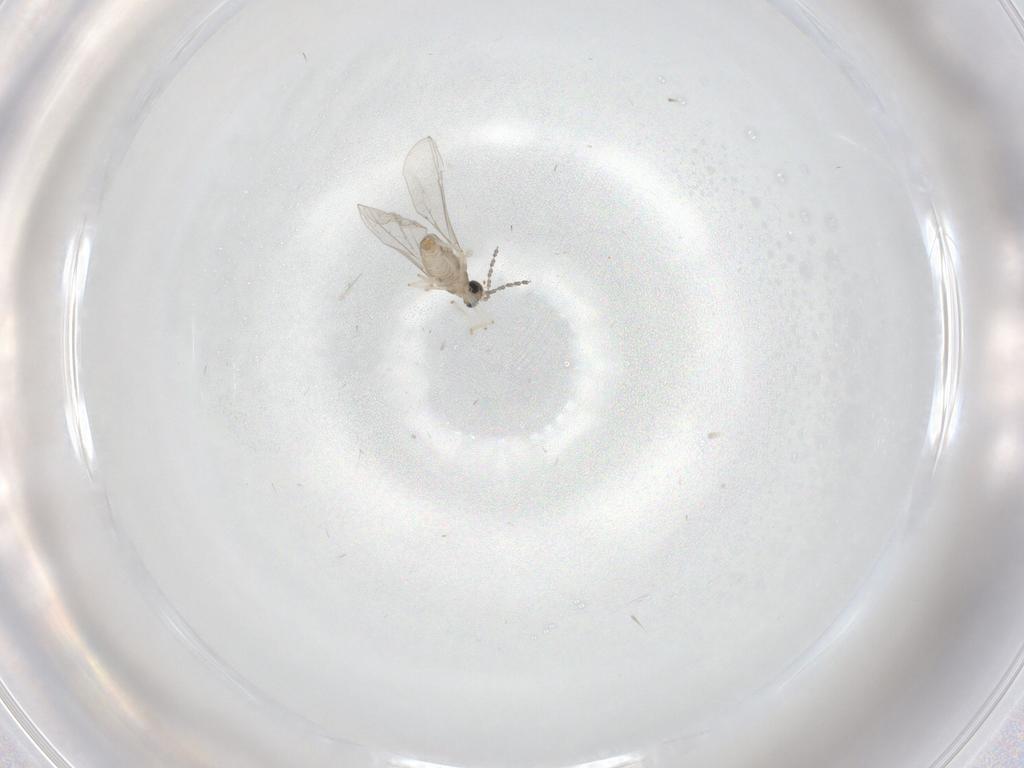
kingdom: Animalia
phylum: Arthropoda
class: Insecta
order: Diptera
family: Cecidomyiidae
